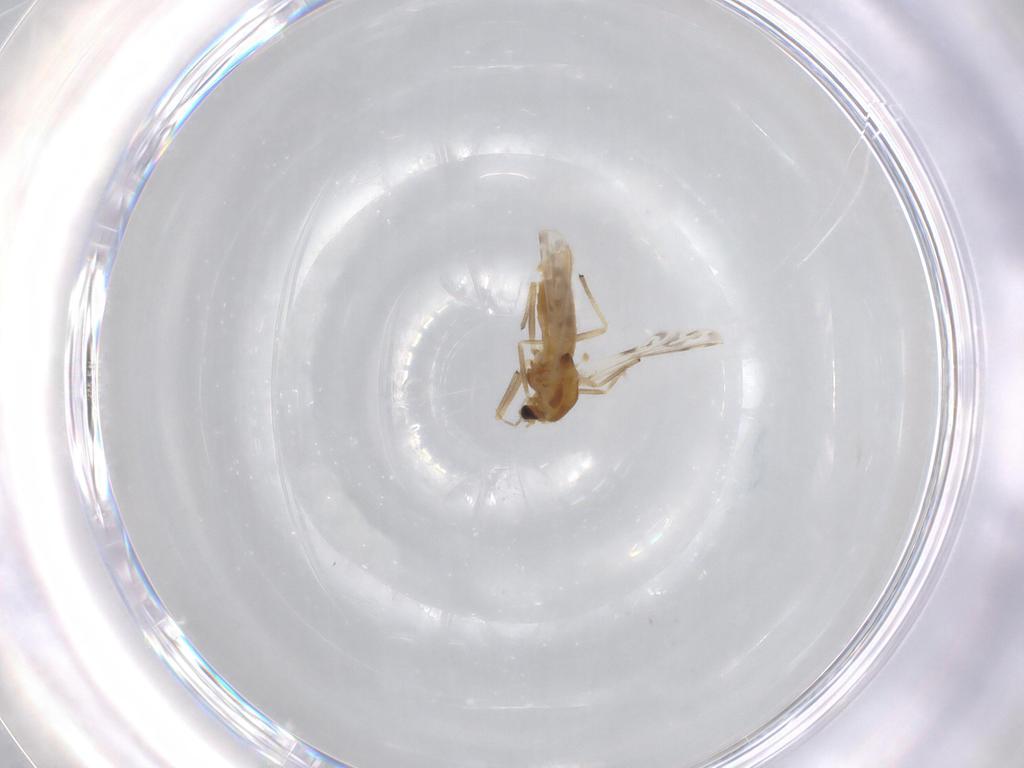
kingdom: Animalia
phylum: Arthropoda
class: Insecta
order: Diptera
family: Chironomidae
